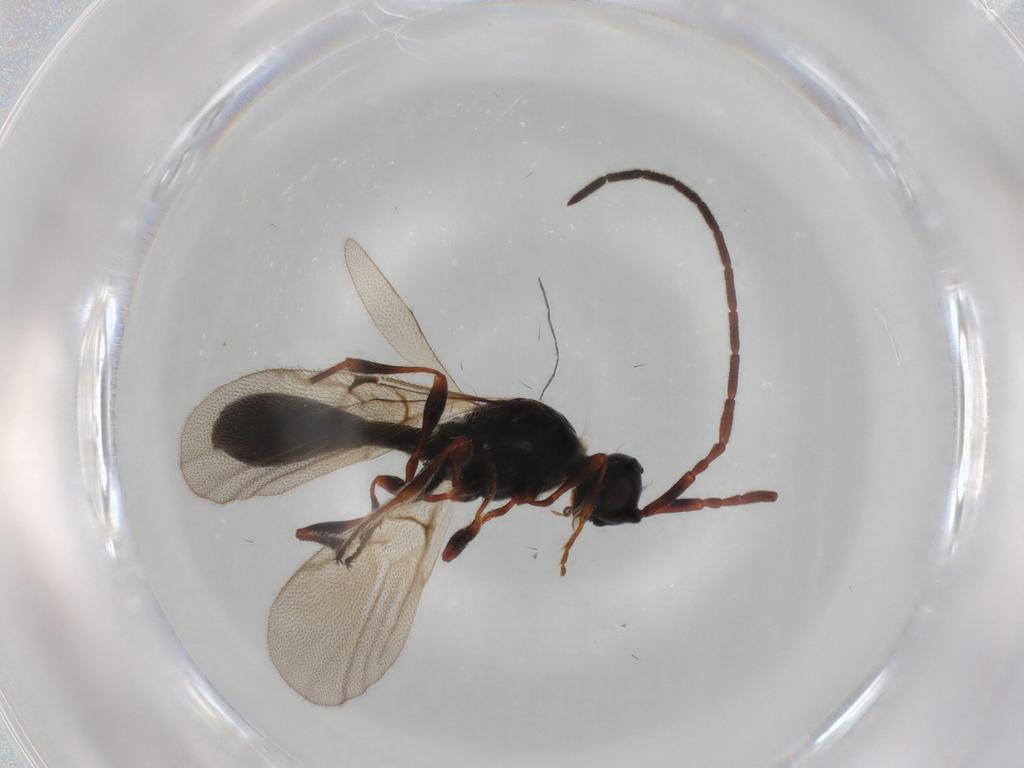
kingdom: Animalia
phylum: Arthropoda
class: Insecta
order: Hymenoptera
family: Diapriidae
